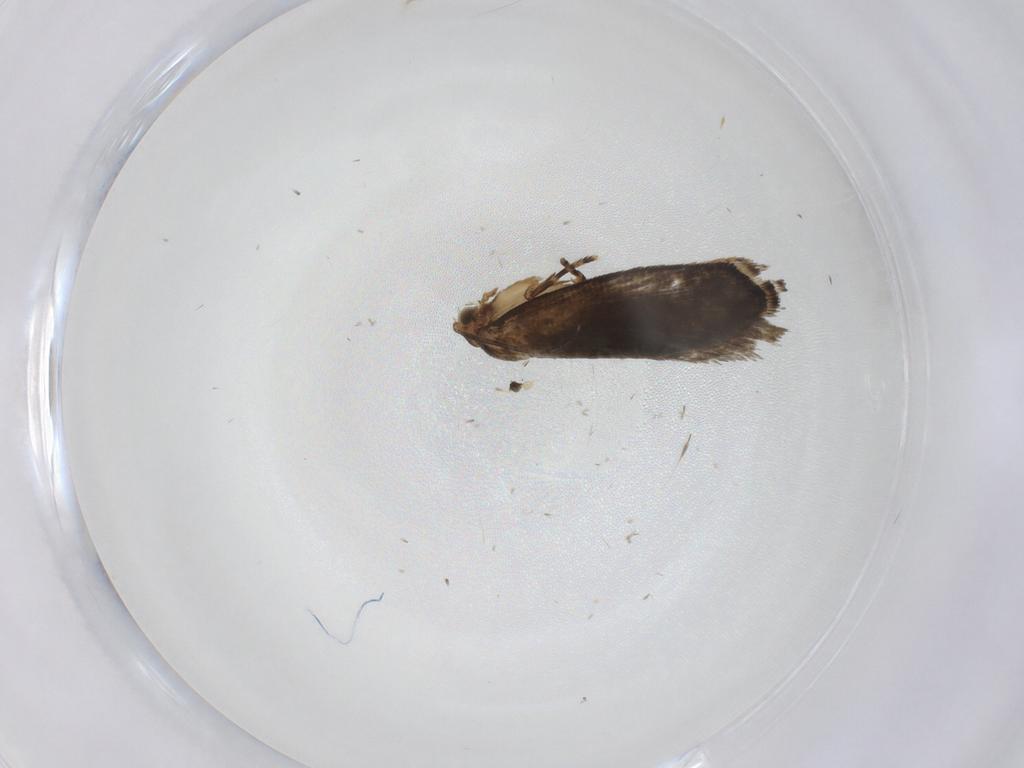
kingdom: Animalia
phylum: Arthropoda
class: Insecta
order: Lepidoptera
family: Tineidae
